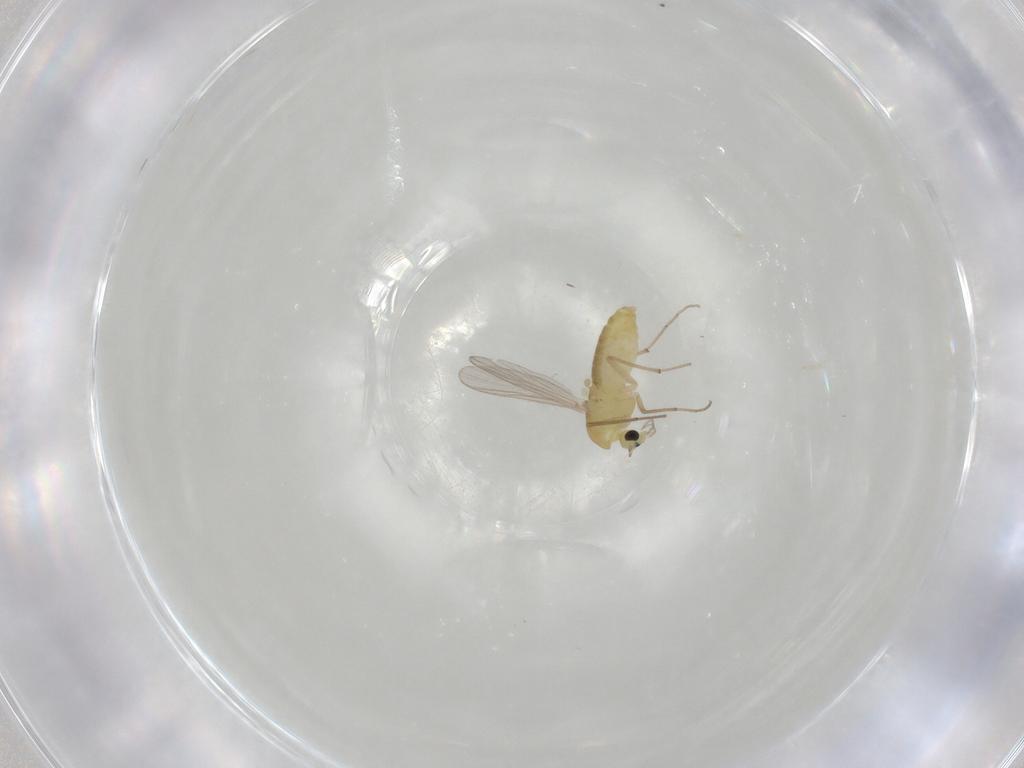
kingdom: Animalia
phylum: Arthropoda
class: Insecta
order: Diptera
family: Chironomidae
